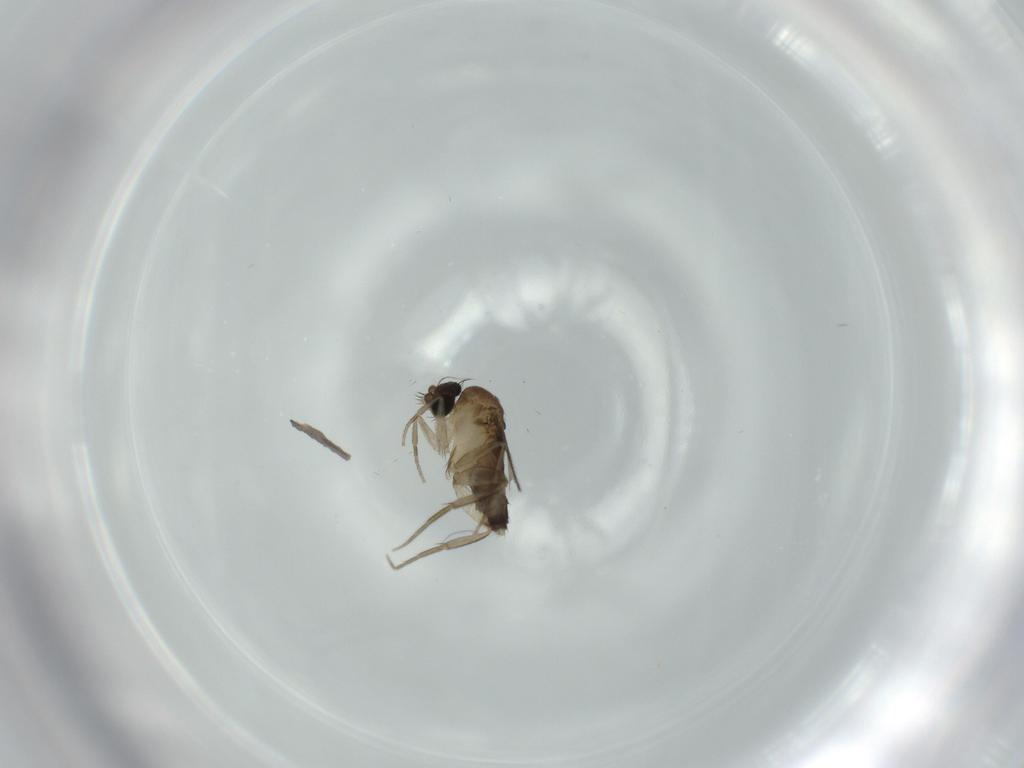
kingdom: Animalia
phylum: Arthropoda
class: Insecta
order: Diptera
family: Phoridae
